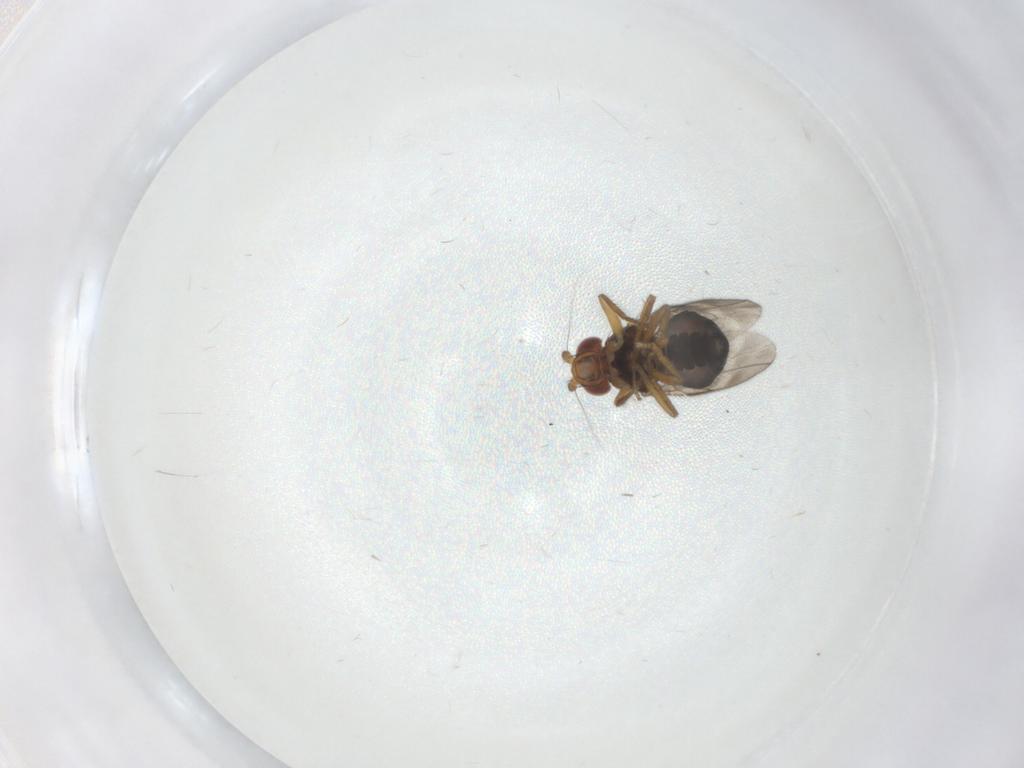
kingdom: Animalia
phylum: Arthropoda
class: Insecta
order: Diptera
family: Sphaeroceridae
